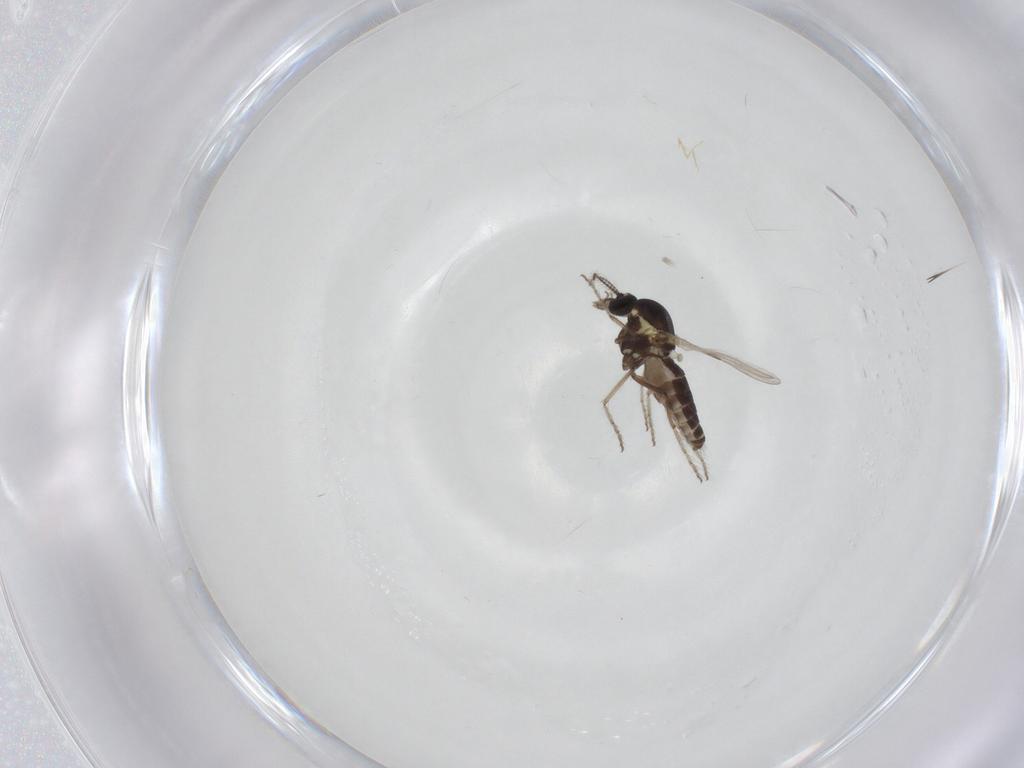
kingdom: Animalia
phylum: Arthropoda
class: Insecta
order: Diptera
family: Ceratopogonidae
